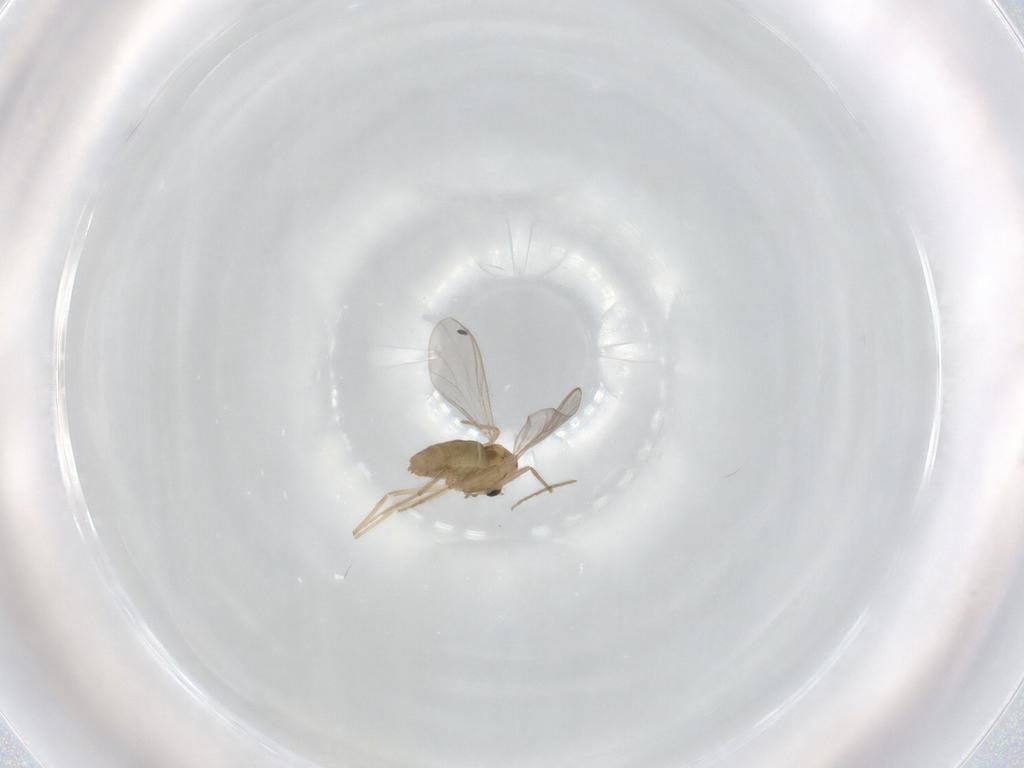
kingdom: Animalia
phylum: Arthropoda
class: Insecta
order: Diptera
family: Chironomidae
